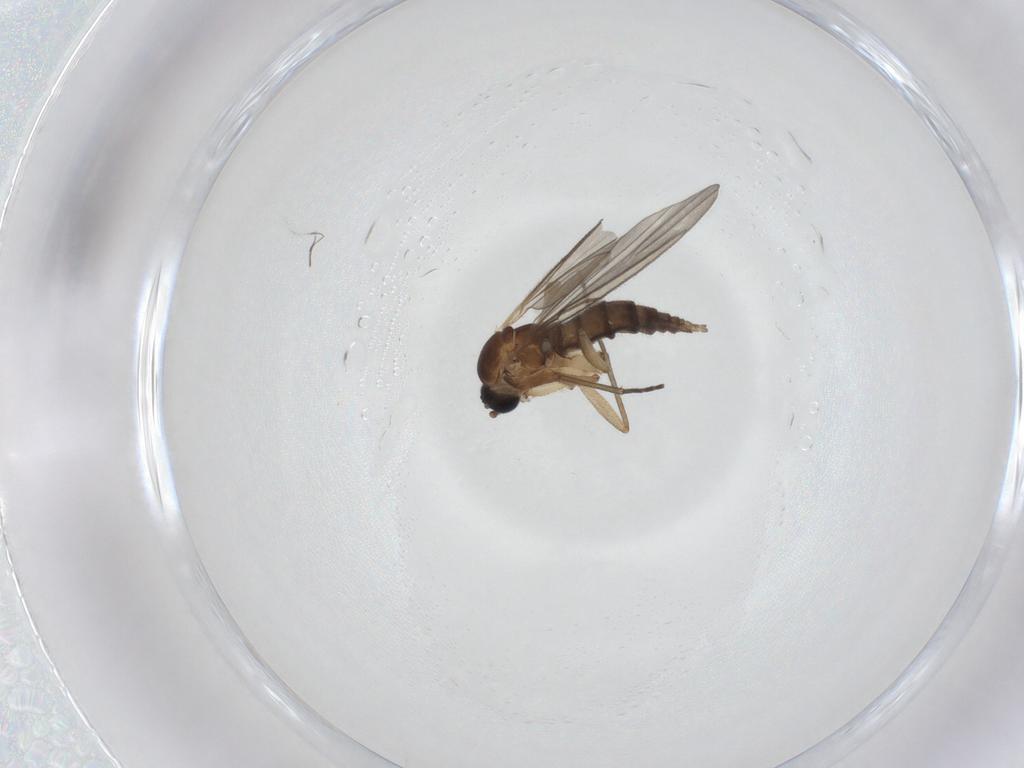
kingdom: Animalia
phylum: Arthropoda
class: Insecta
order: Diptera
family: Sciaridae
